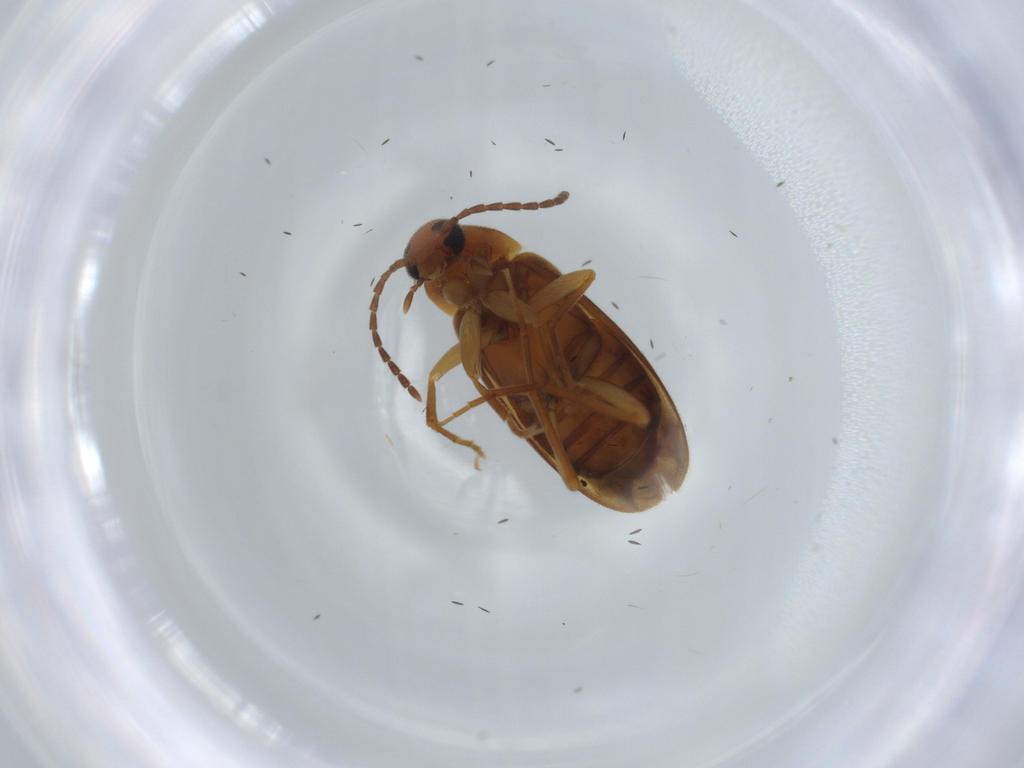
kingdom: Animalia
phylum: Arthropoda
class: Insecta
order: Coleoptera
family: Scraptiidae
